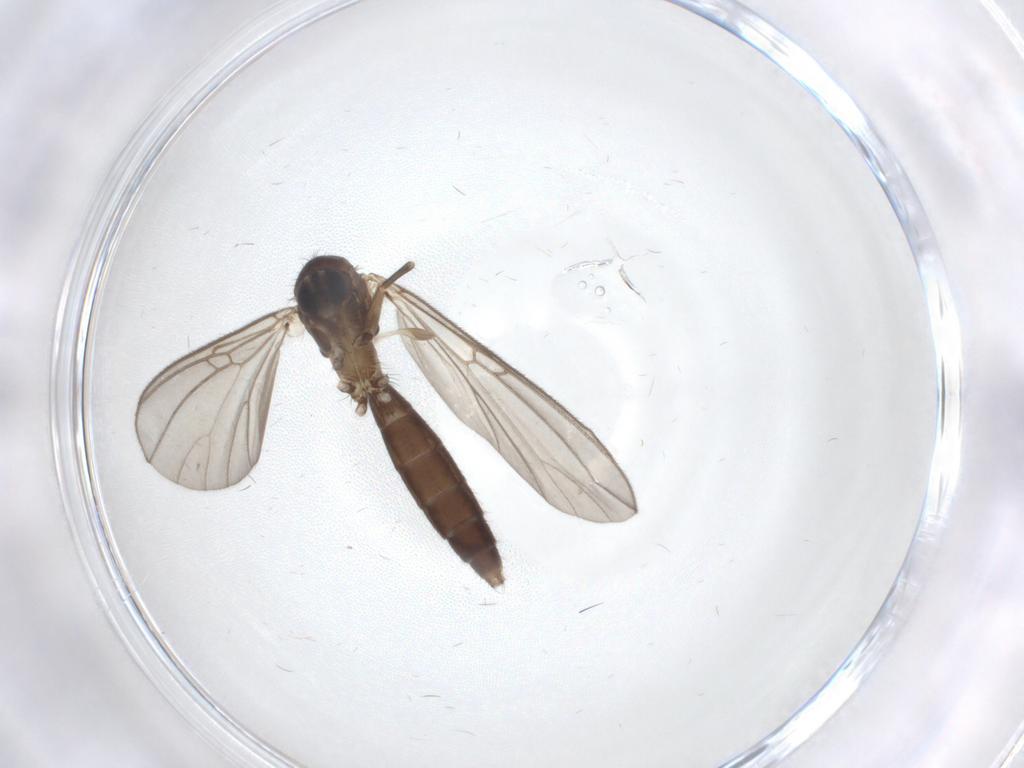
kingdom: Animalia
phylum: Arthropoda
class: Insecta
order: Diptera
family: Mycetophilidae
